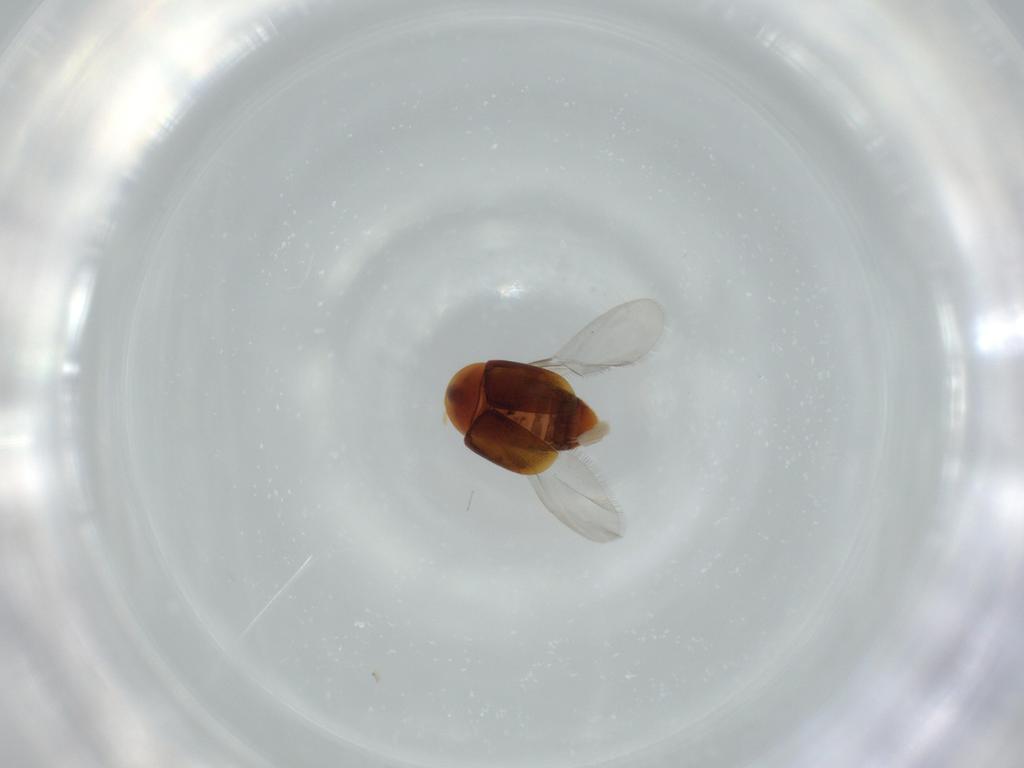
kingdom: Animalia
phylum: Arthropoda
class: Insecta
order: Coleoptera
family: Corylophidae
